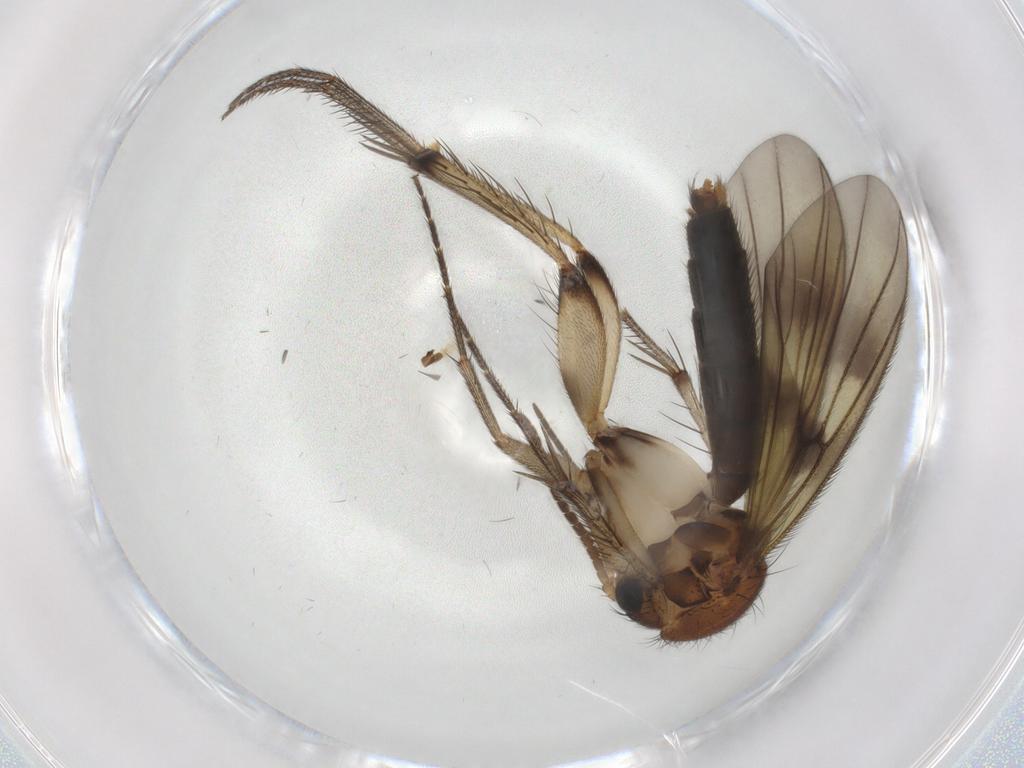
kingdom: Animalia
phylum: Arthropoda
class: Insecta
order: Diptera
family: Mycetophilidae
